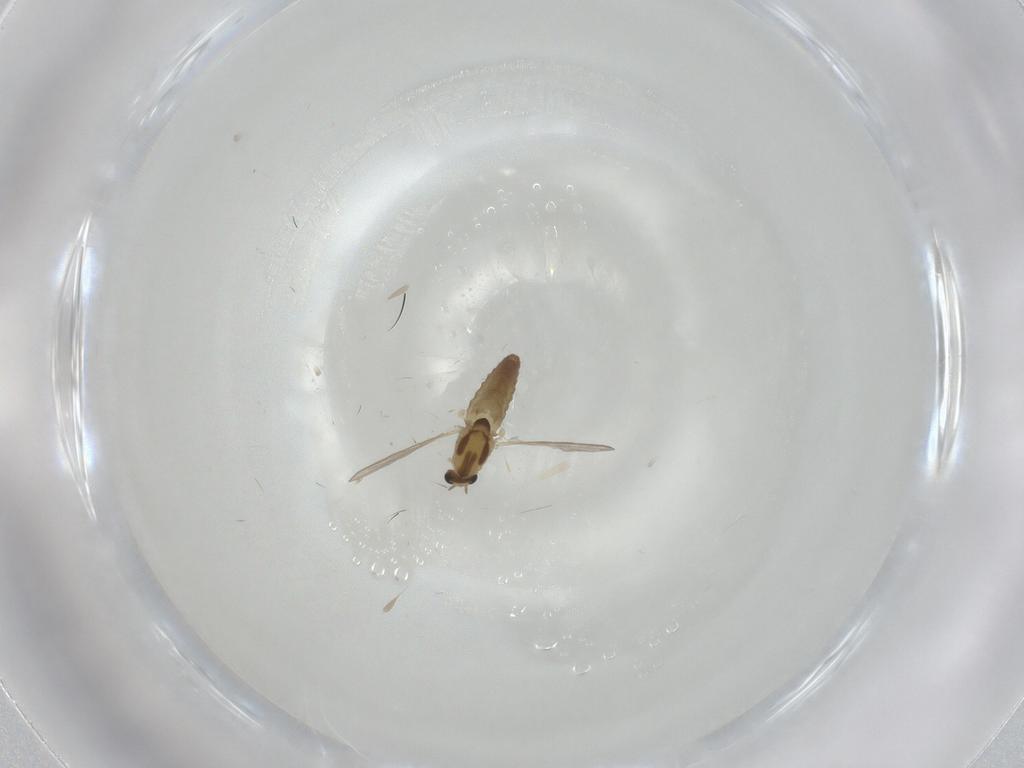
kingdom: Animalia
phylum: Arthropoda
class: Insecta
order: Diptera
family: Chironomidae
